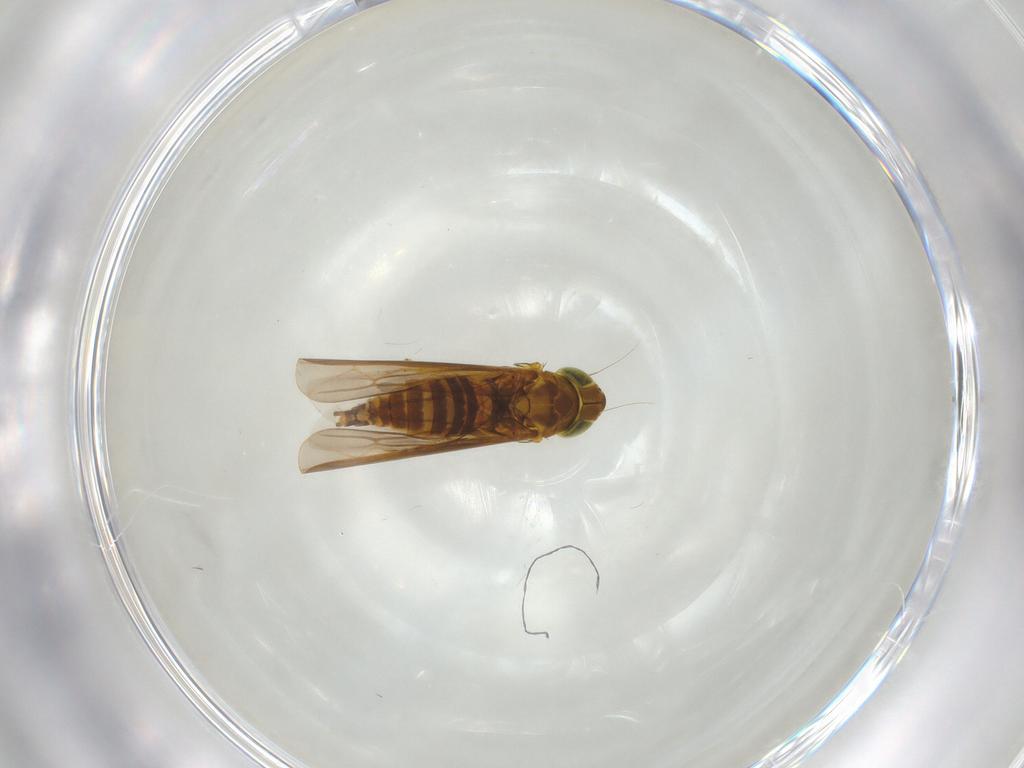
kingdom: Animalia
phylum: Arthropoda
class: Insecta
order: Hemiptera
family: Cicadellidae
